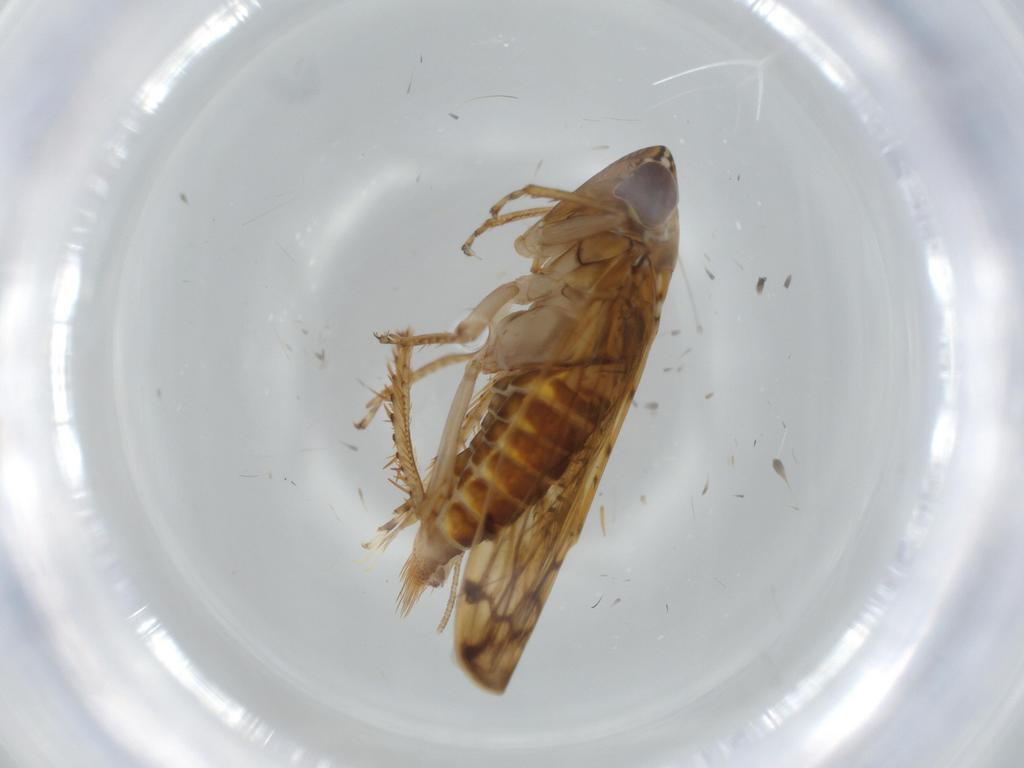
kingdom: Animalia
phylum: Arthropoda
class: Insecta
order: Hemiptera
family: Cicadellidae
